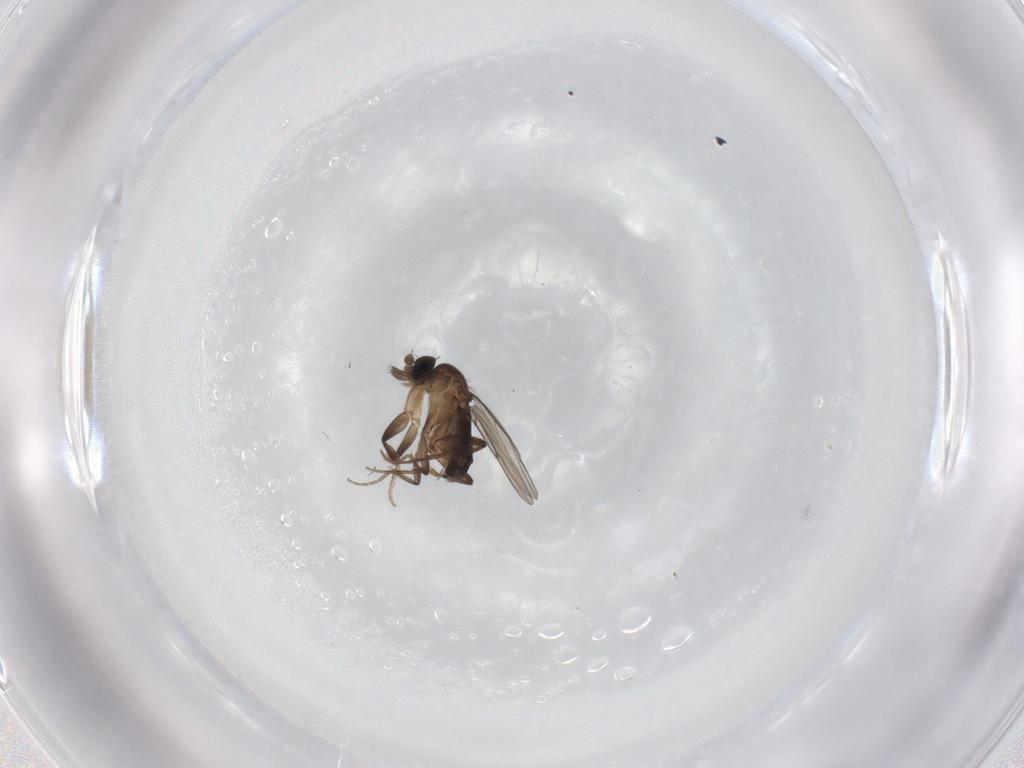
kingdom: Animalia
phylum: Arthropoda
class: Insecta
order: Diptera
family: Phoridae
